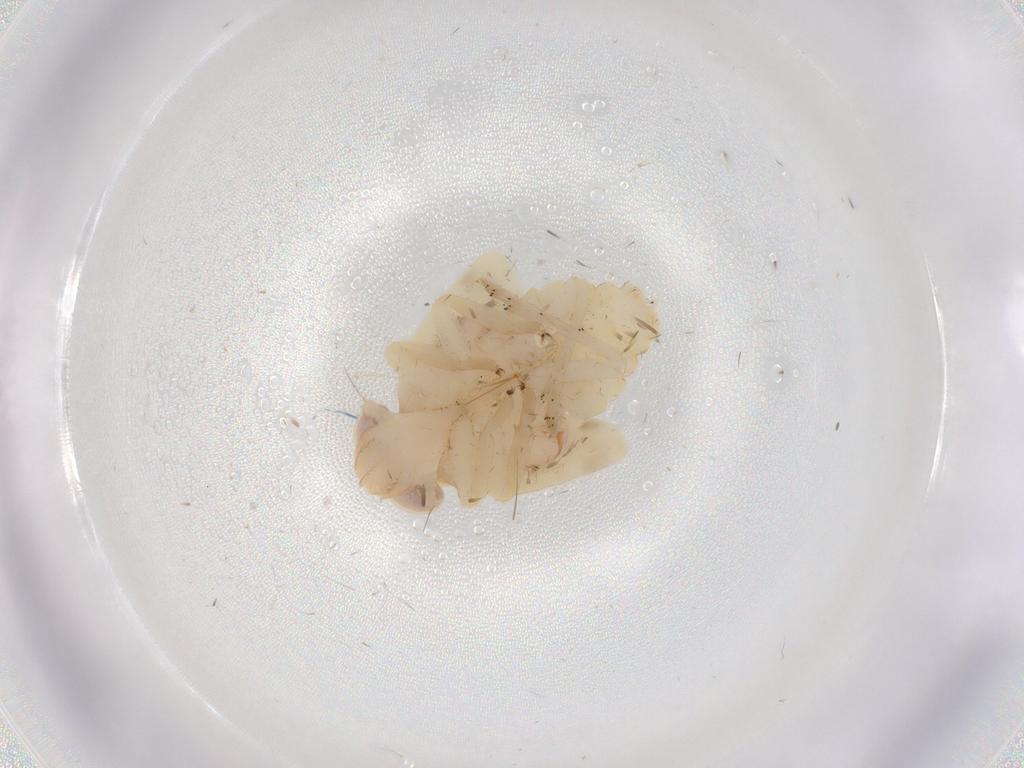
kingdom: Animalia
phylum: Arthropoda
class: Insecta
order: Hemiptera
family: Nogodinidae
